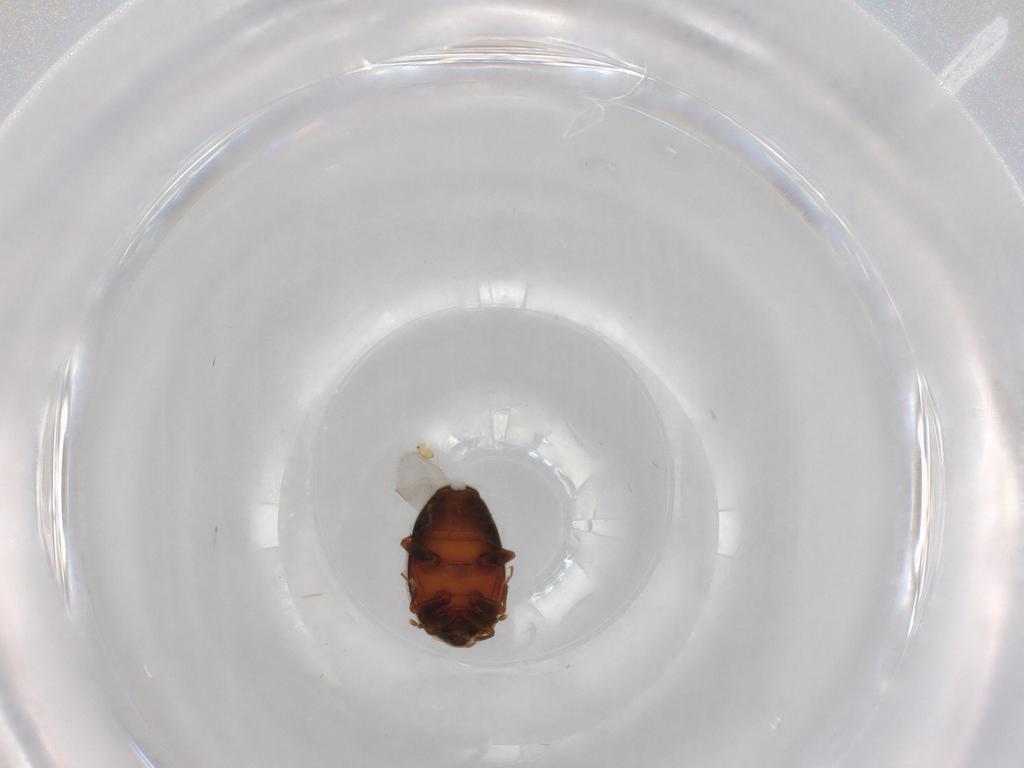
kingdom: Animalia
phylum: Arthropoda
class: Insecta
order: Coleoptera
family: Corylophidae
